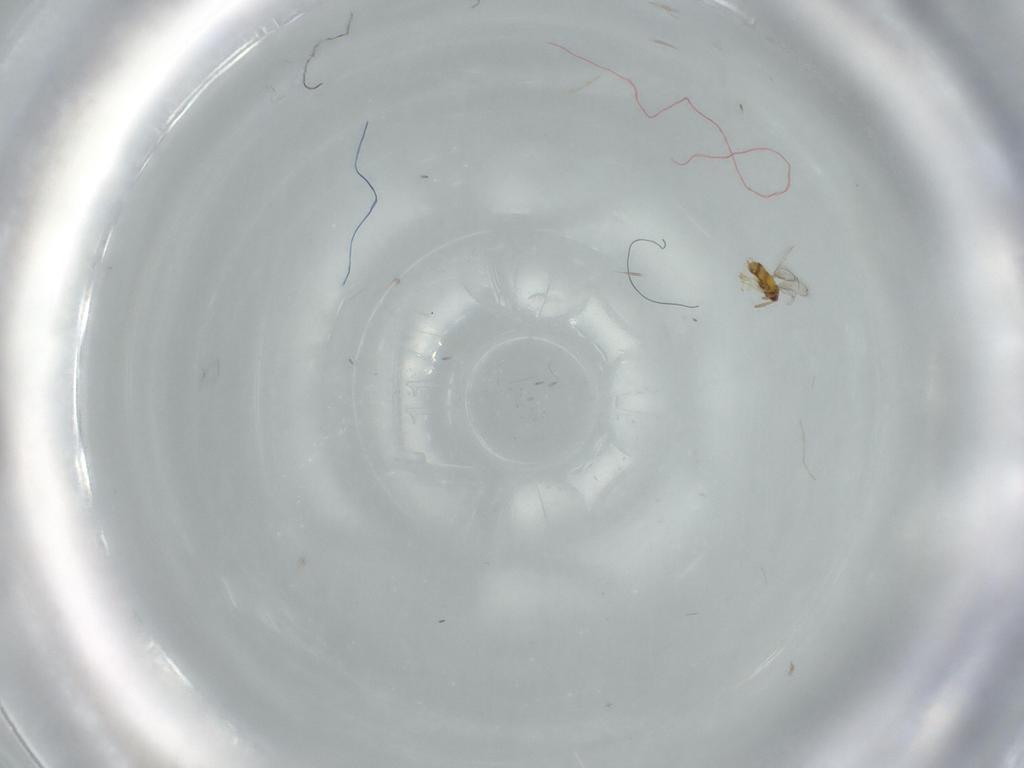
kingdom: Animalia
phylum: Arthropoda
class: Insecta
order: Hymenoptera
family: Aphelinidae
